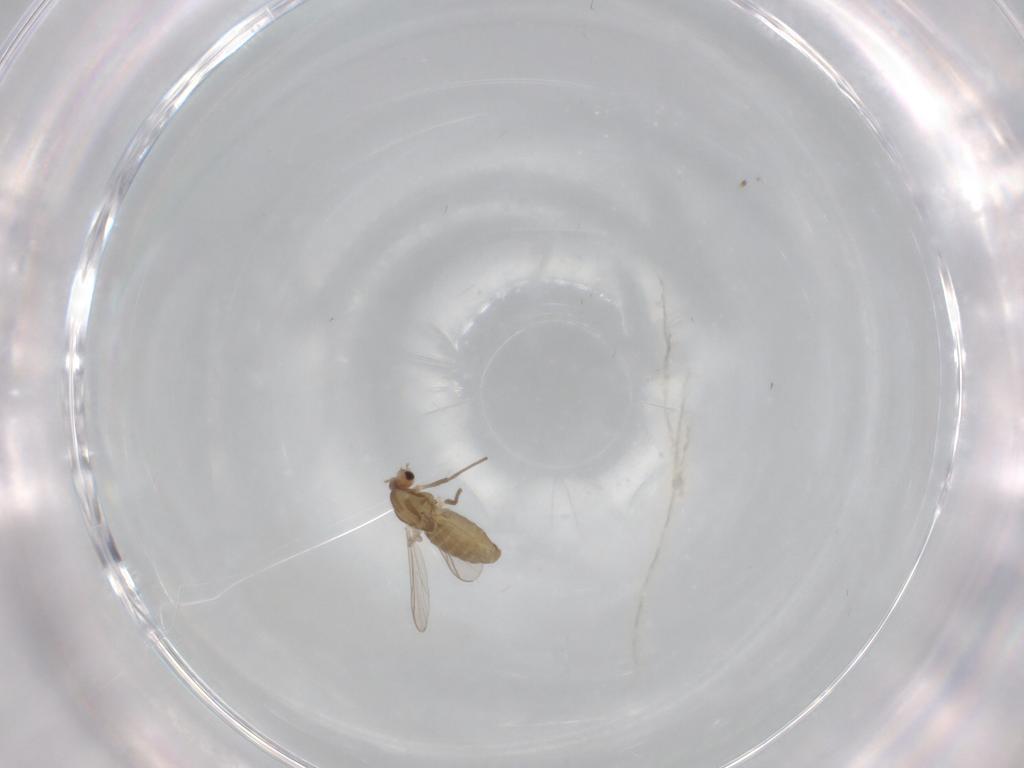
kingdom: Animalia
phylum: Arthropoda
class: Insecta
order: Diptera
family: Chironomidae
